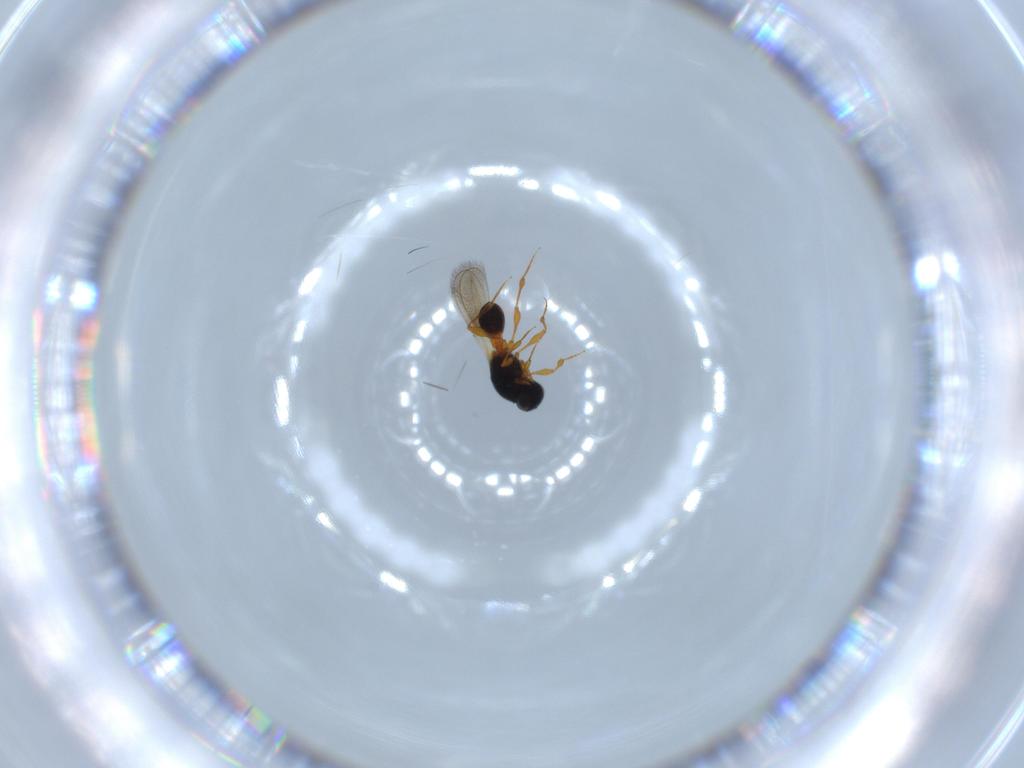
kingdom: Animalia
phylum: Arthropoda
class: Insecta
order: Hymenoptera
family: Platygastridae
